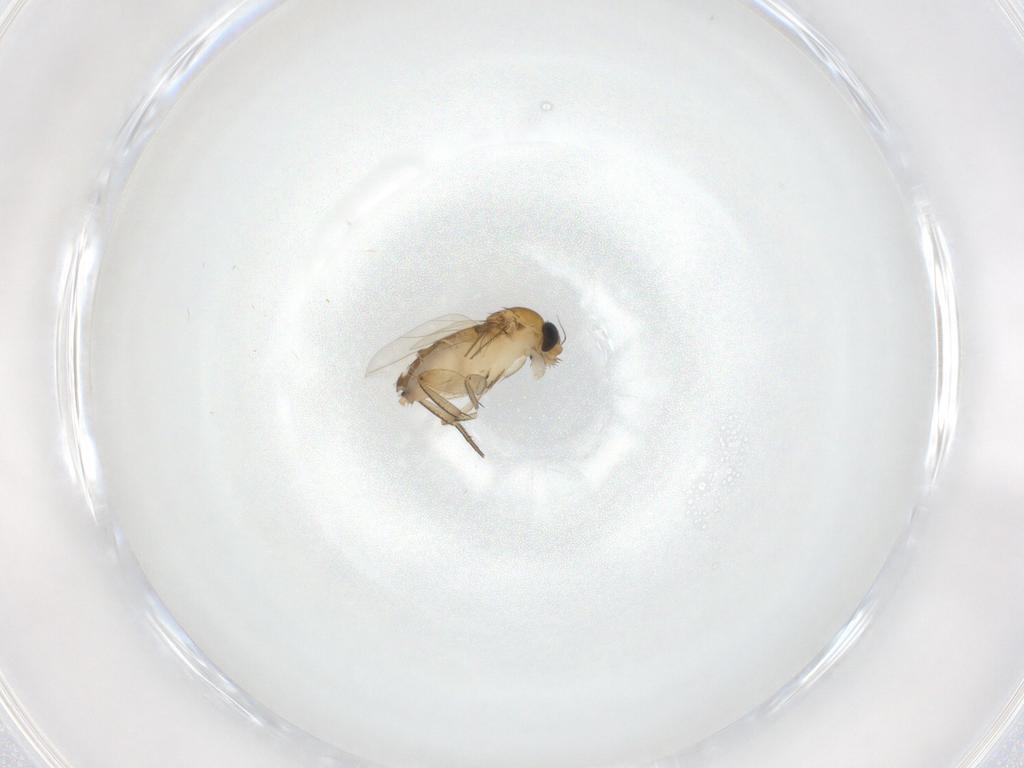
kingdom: Animalia
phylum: Arthropoda
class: Insecta
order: Diptera
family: Phoridae
